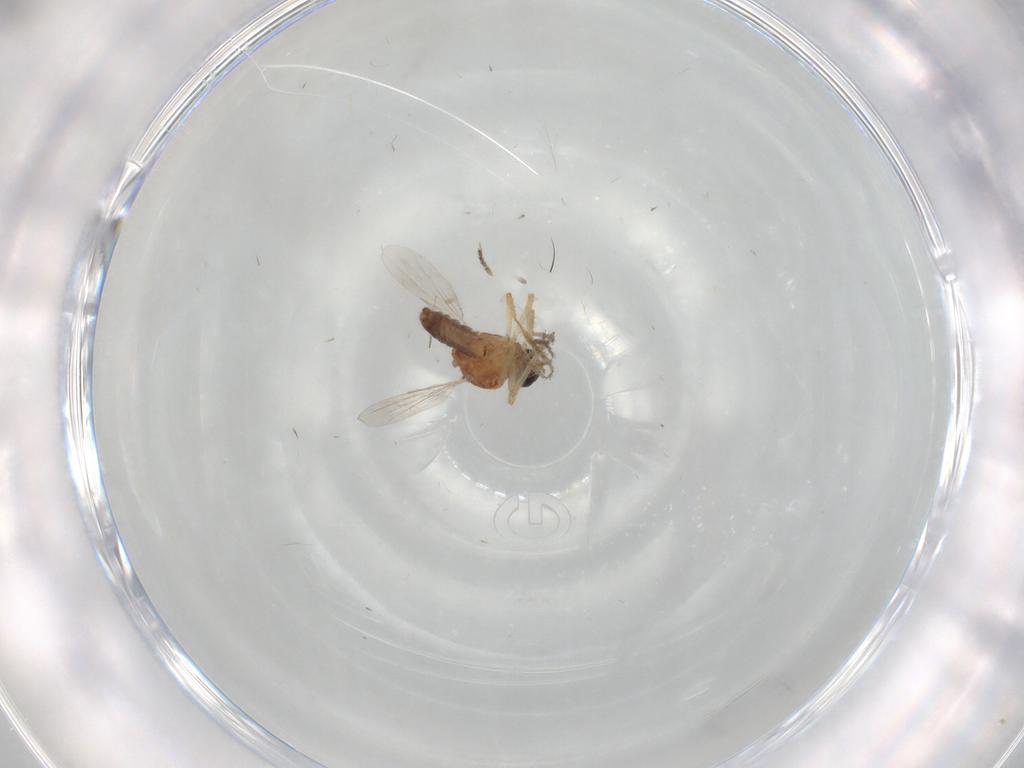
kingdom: Animalia
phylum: Arthropoda
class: Insecta
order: Diptera
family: Ceratopogonidae
